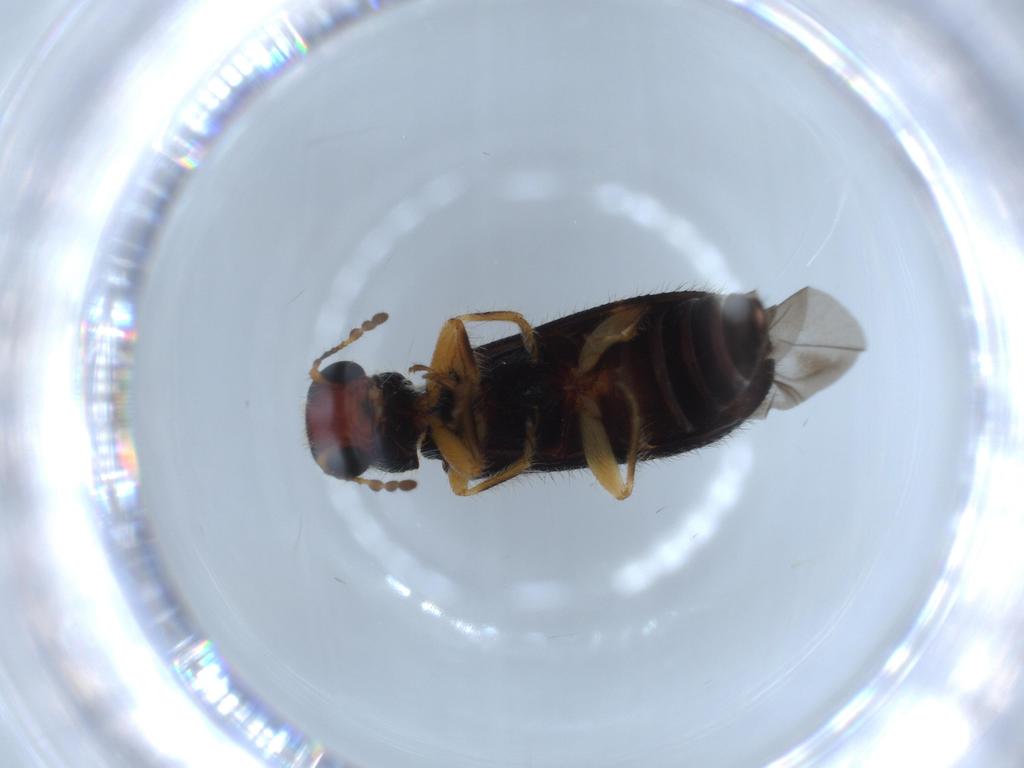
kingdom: Animalia
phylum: Arthropoda
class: Insecta
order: Coleoptera
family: Cleridae
